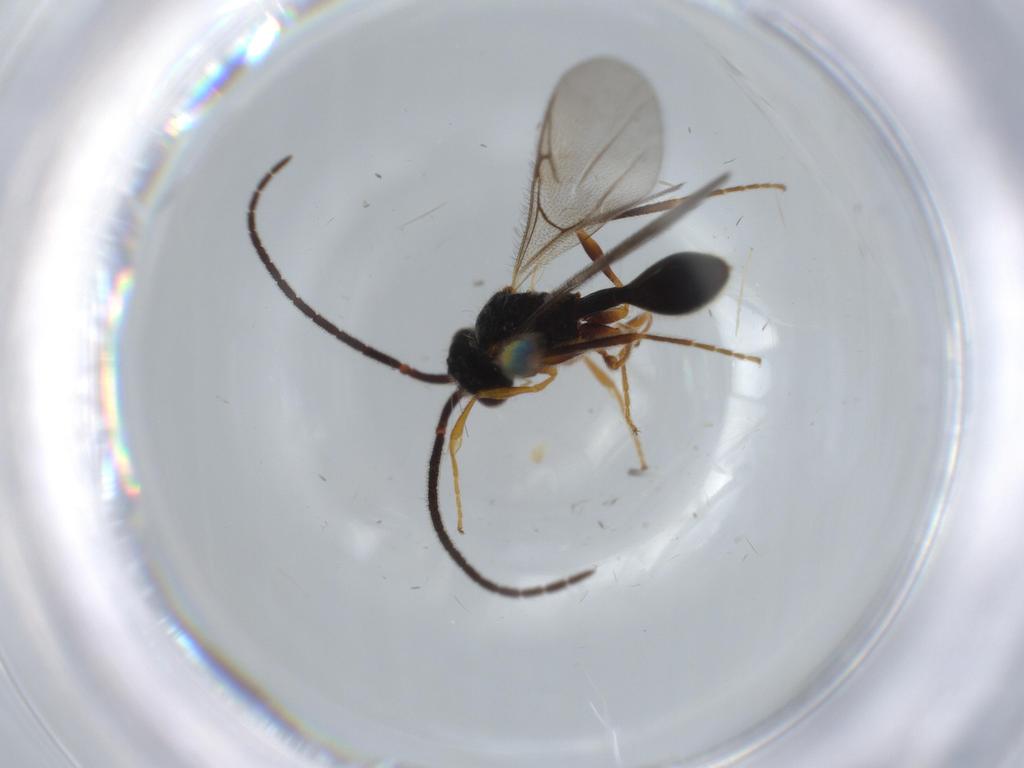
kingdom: Animalia
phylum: Arthropoda
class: Insecta
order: Hymenoptera
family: Diapriidae
